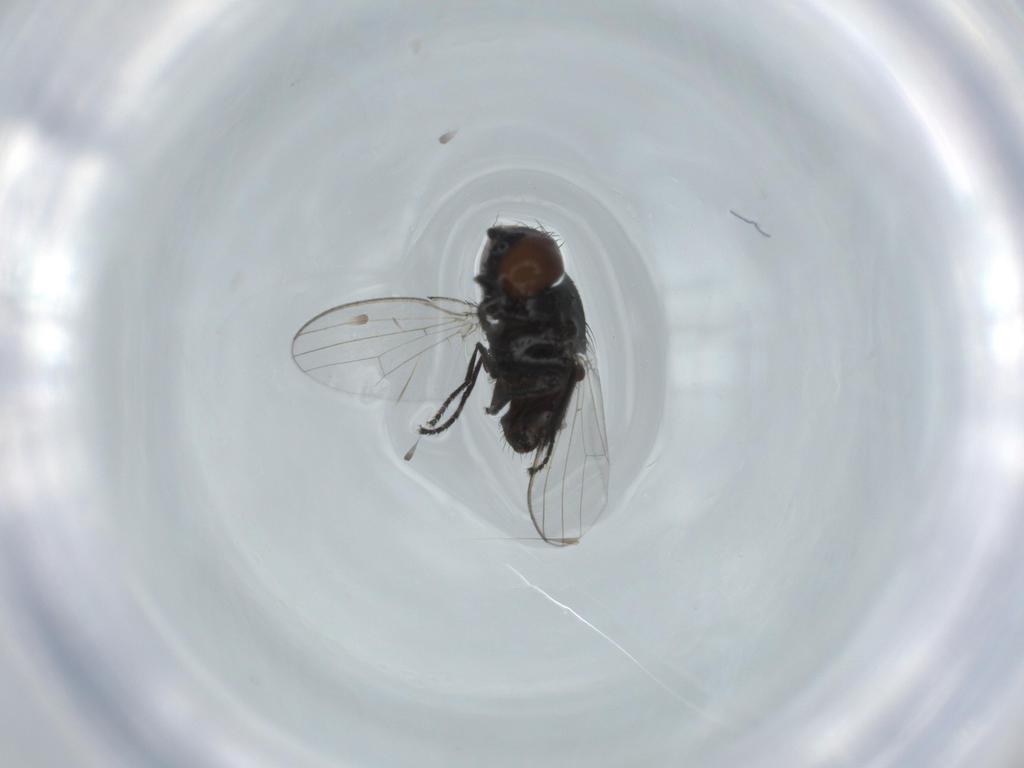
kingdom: Animalia
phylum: Arthropoda
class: Insecta
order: Diptera
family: Milichiidae
